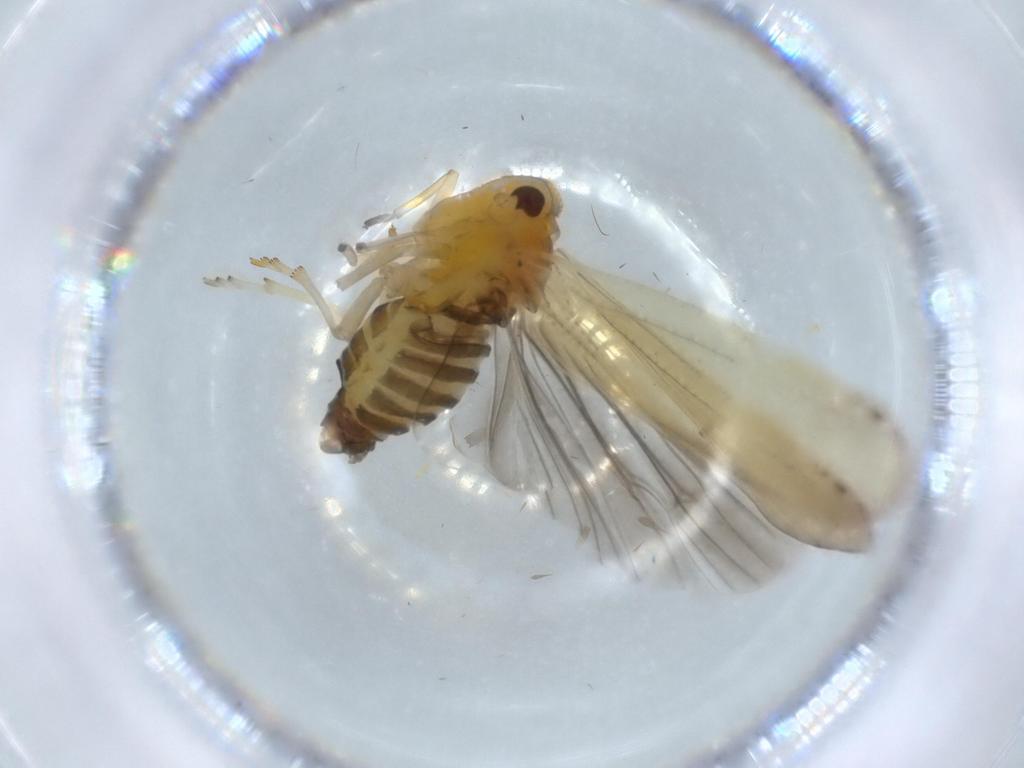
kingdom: Animalia
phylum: Arthropoda
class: Insecta
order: Hemiptera
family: Derbidae
